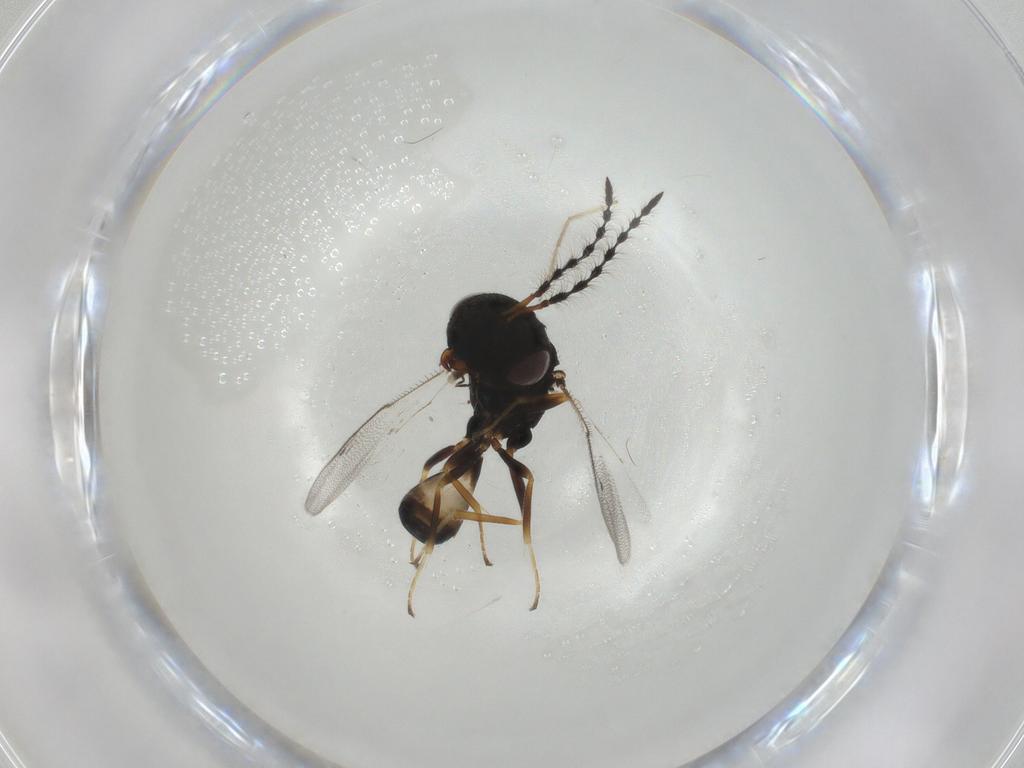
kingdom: Animalia
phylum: Arthropoda
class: Insecta
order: Hymenoptera
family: Pteromalidae
